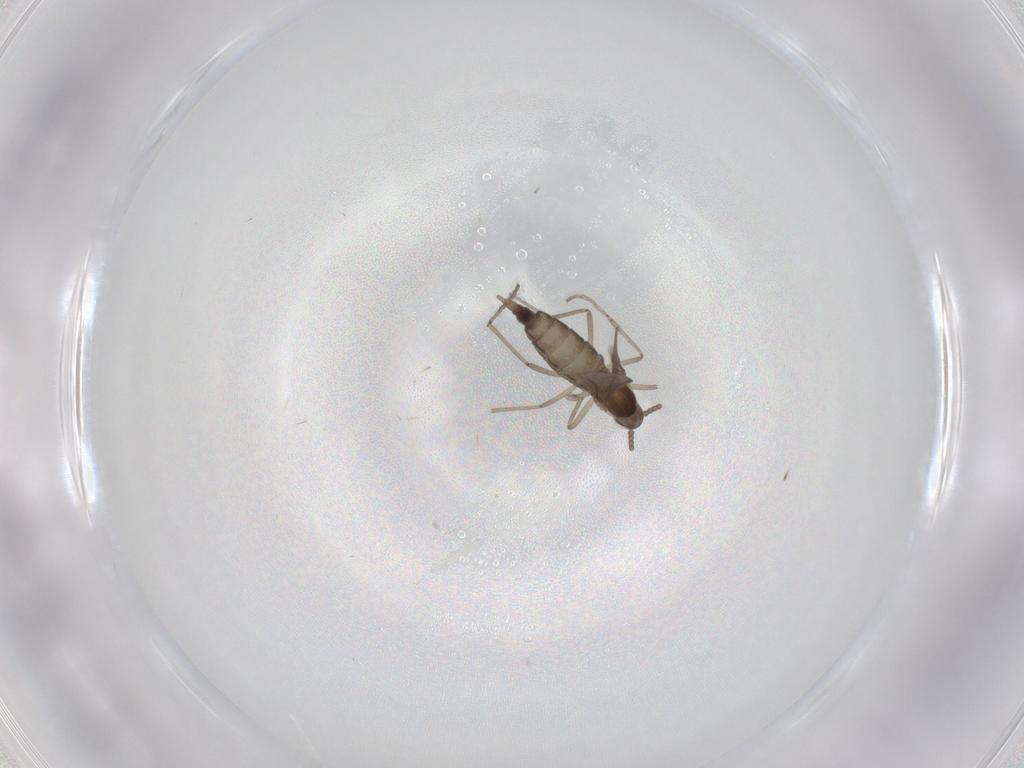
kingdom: Animalia
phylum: Arthropoda
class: Insecta
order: Diptera
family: Cecidomyiidae
